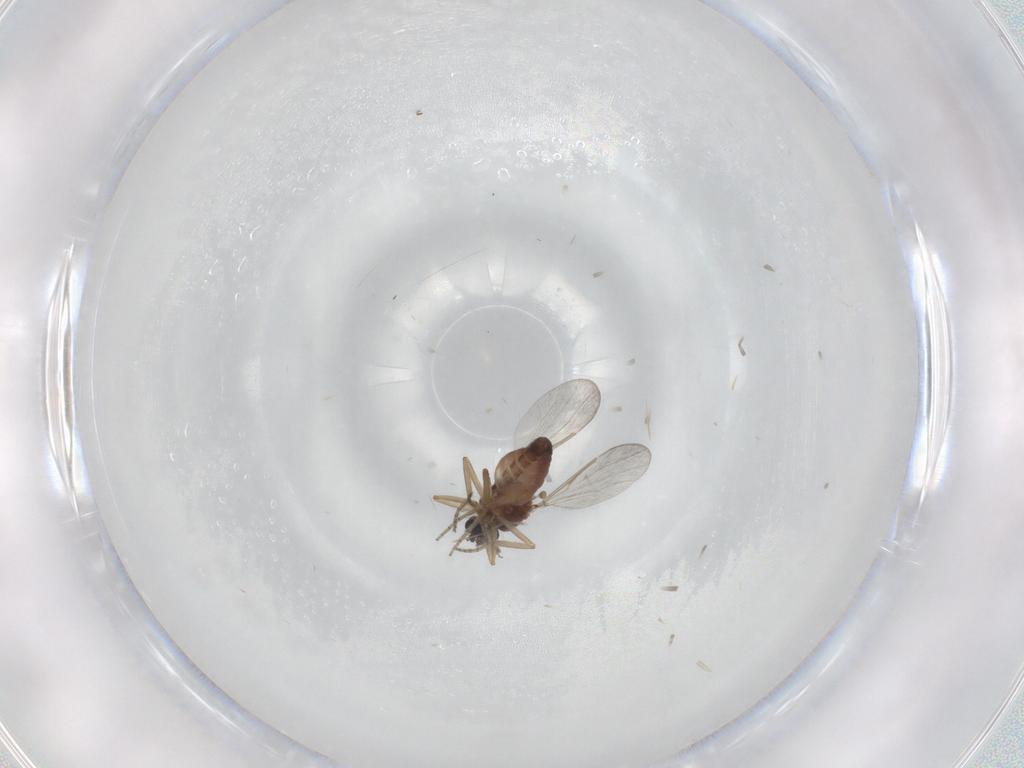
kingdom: Animalia
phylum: Arthropoda
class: Insecta
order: Diptera
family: Ceratopogonidae
